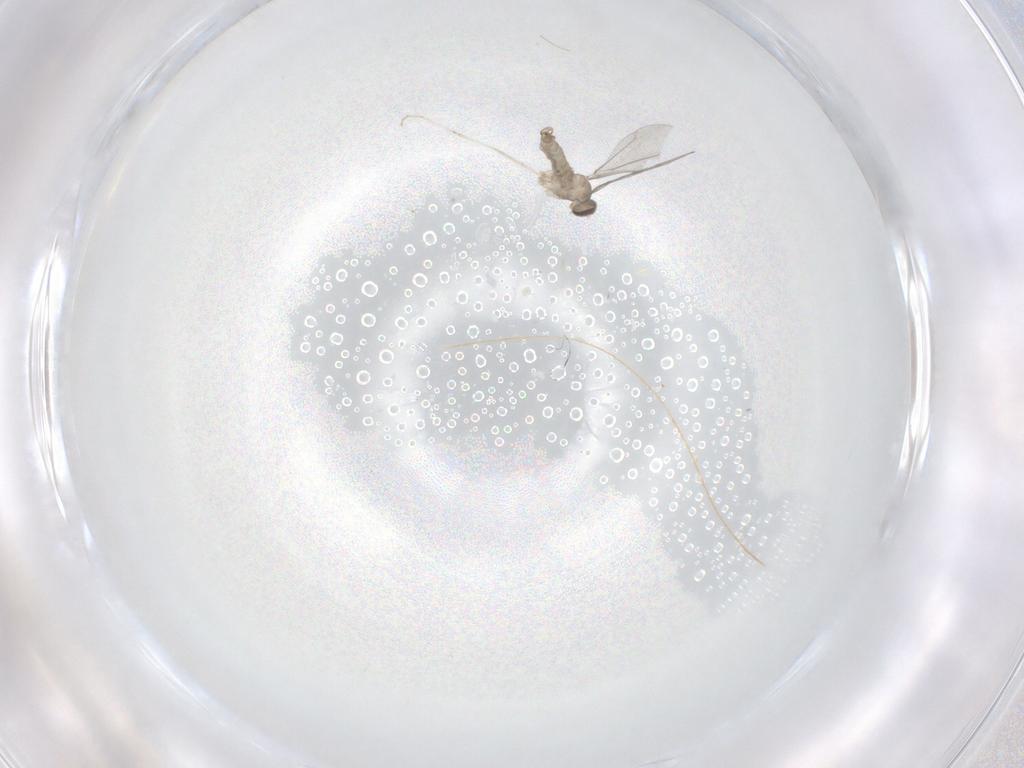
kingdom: Animalia
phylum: Arthropoda
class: Insecta
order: Diptera
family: Cecidomyiidae
